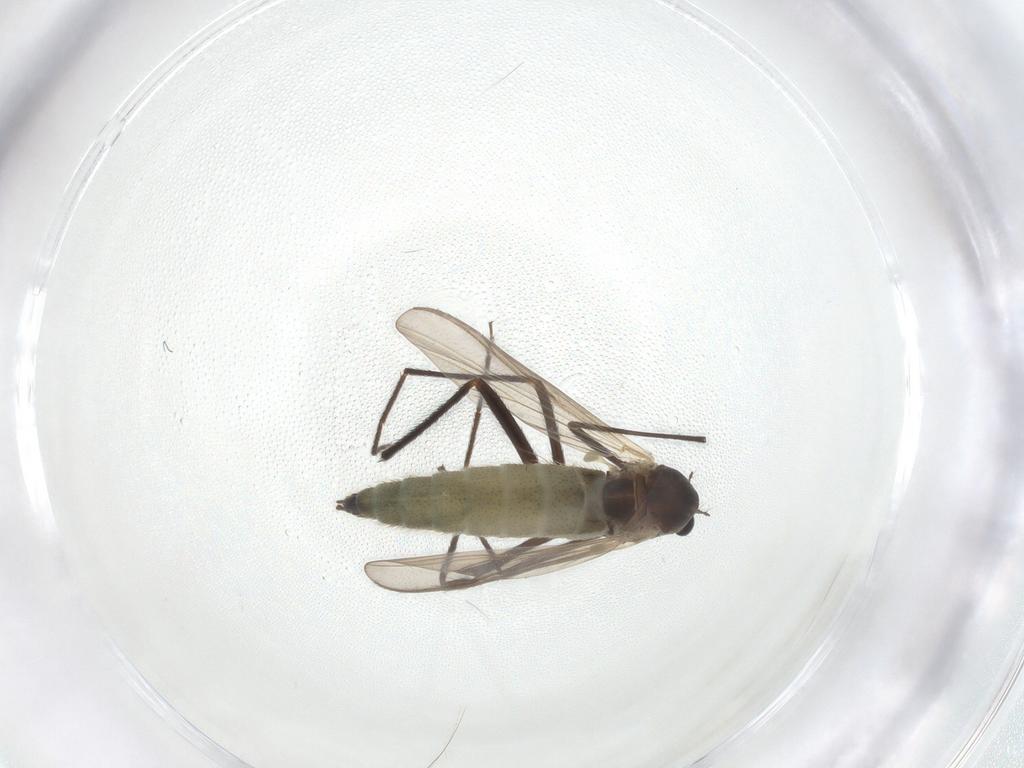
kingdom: Animalia
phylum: Arthropoda
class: Insecta
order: Diptera
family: Chironomidae
